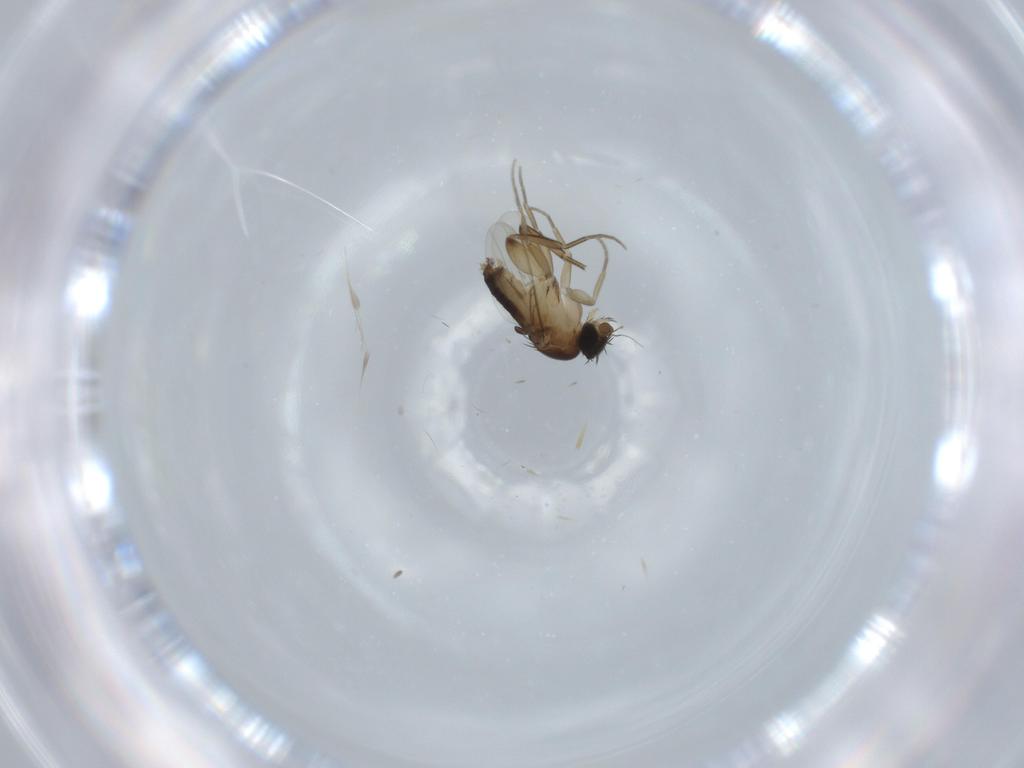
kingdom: Animalia
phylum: Arthropoda
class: Insecta
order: Diptera
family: Phoridae
